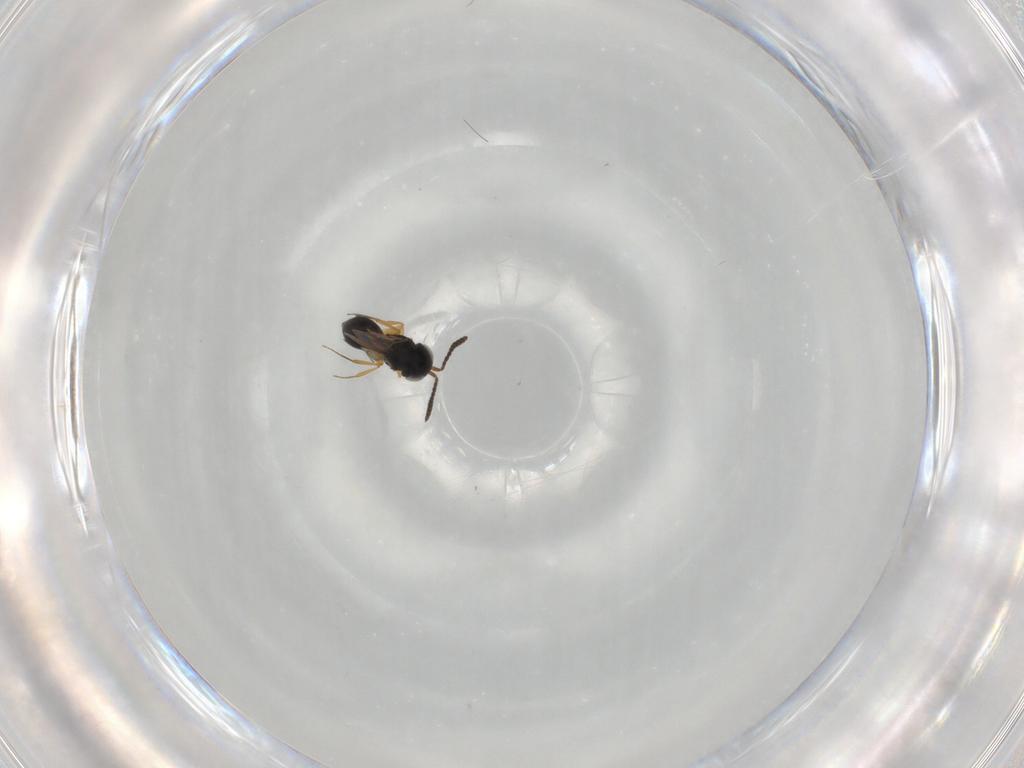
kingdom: Animalia
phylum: Arthropoda
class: Insecta
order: Hymenoptera
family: Scelionidae
